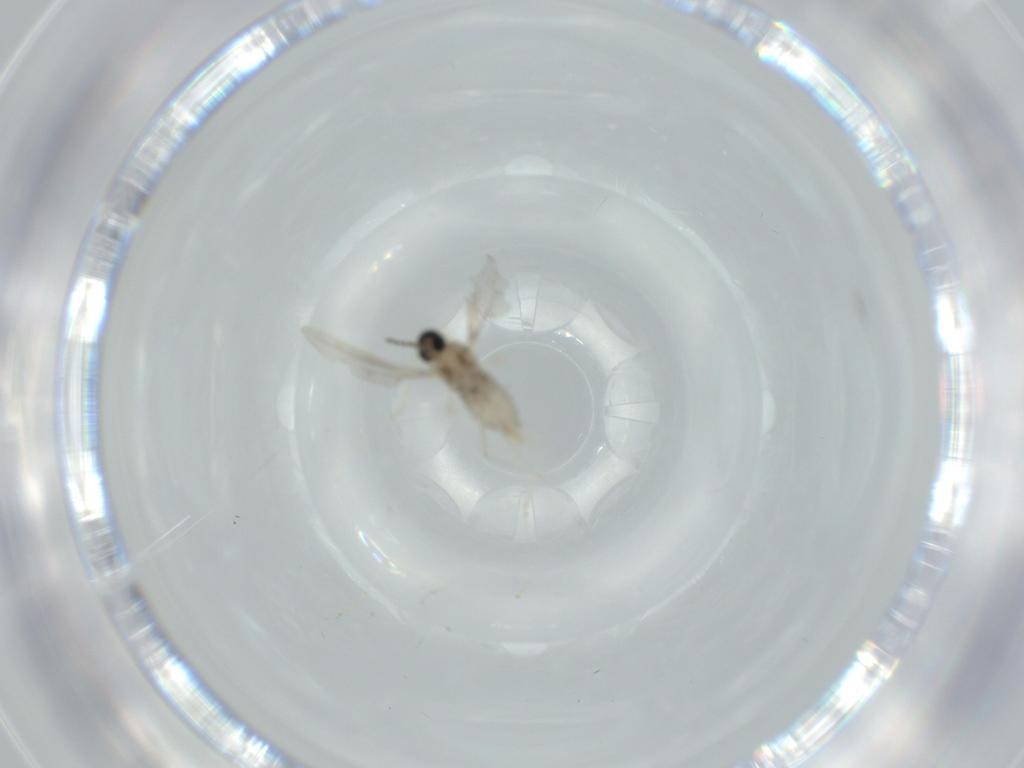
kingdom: Animalia
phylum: Arthropoda
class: Insecta
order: Diptera
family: Cecidomyiidae
